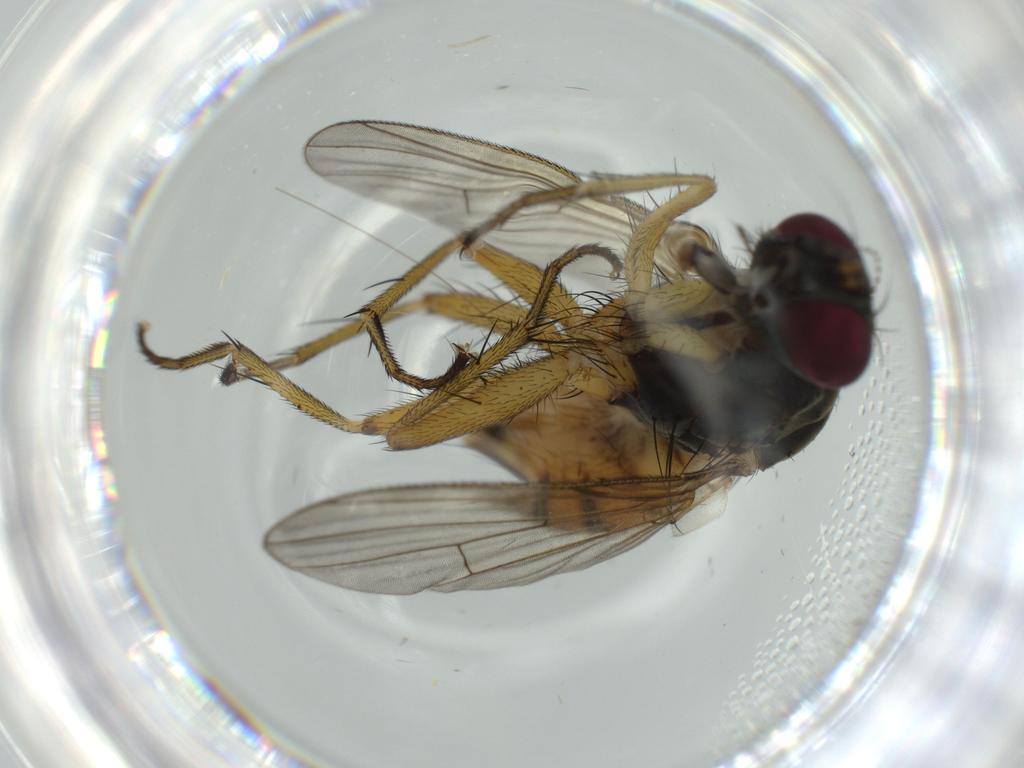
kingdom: Animalia
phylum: Arthropoda
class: Insecta
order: Diptera
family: Muscidae
